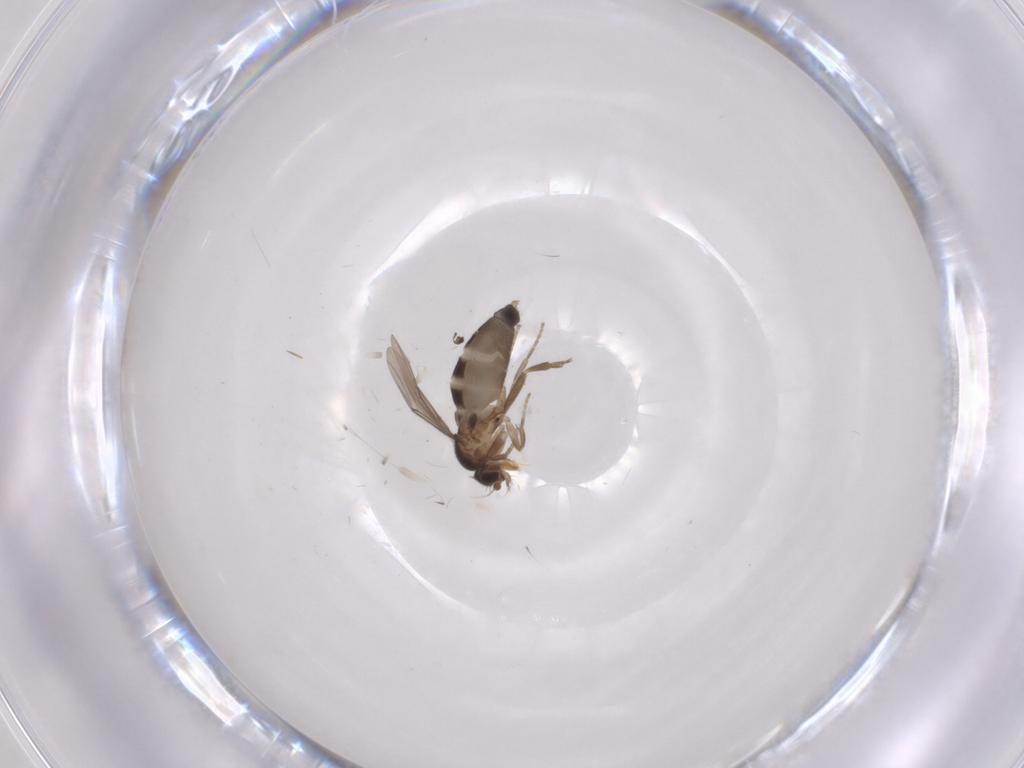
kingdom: Animalia
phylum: Arthropoda
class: Insecta
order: Diptera
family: Phoridae
